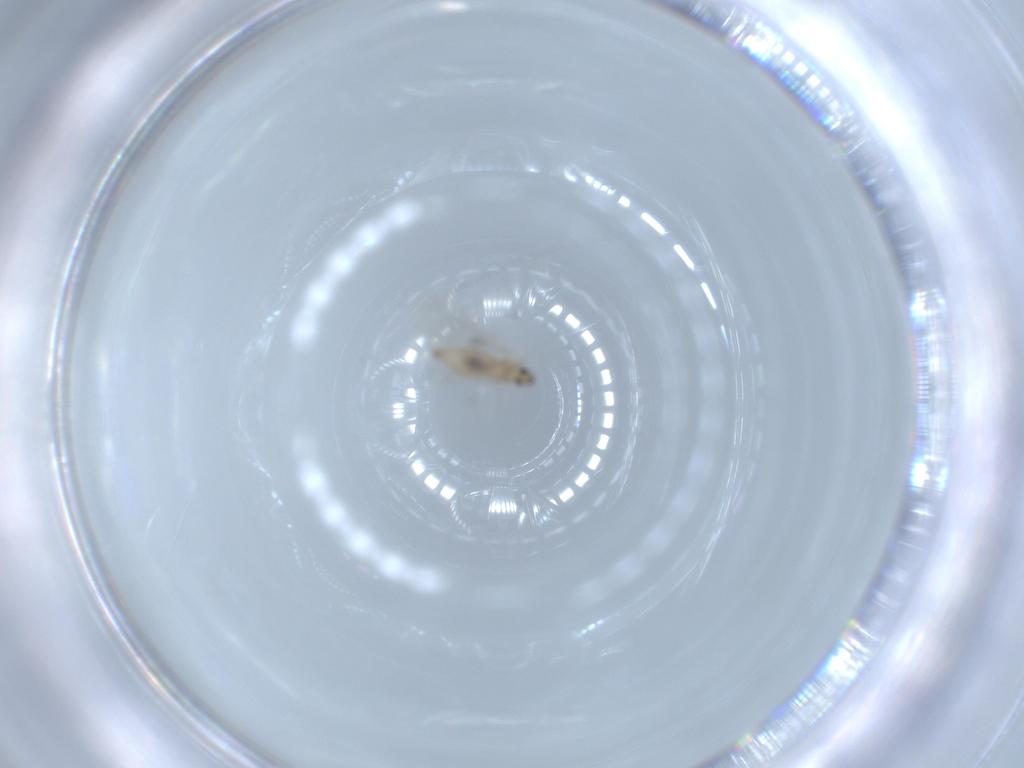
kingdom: Animalia
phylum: Arthropoda
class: Insecta
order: Diptera
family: Cecidomyiidae
